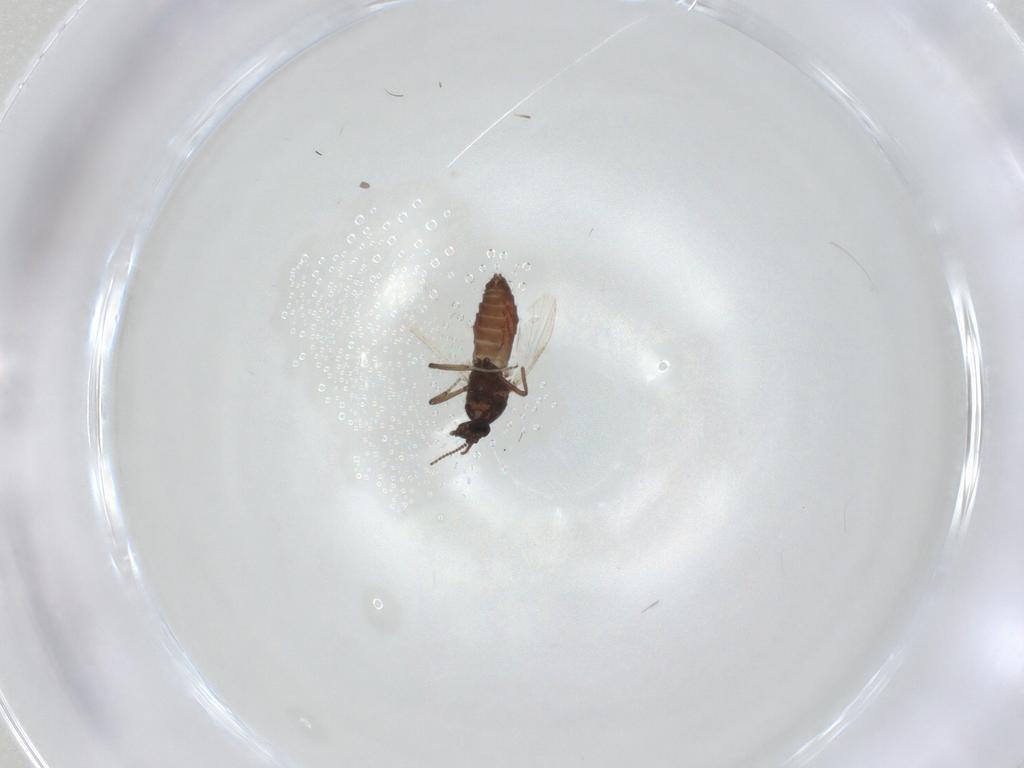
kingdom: Animalia
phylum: Arthropoda
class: Insecta
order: Diptera
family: Ceratopogonidae
